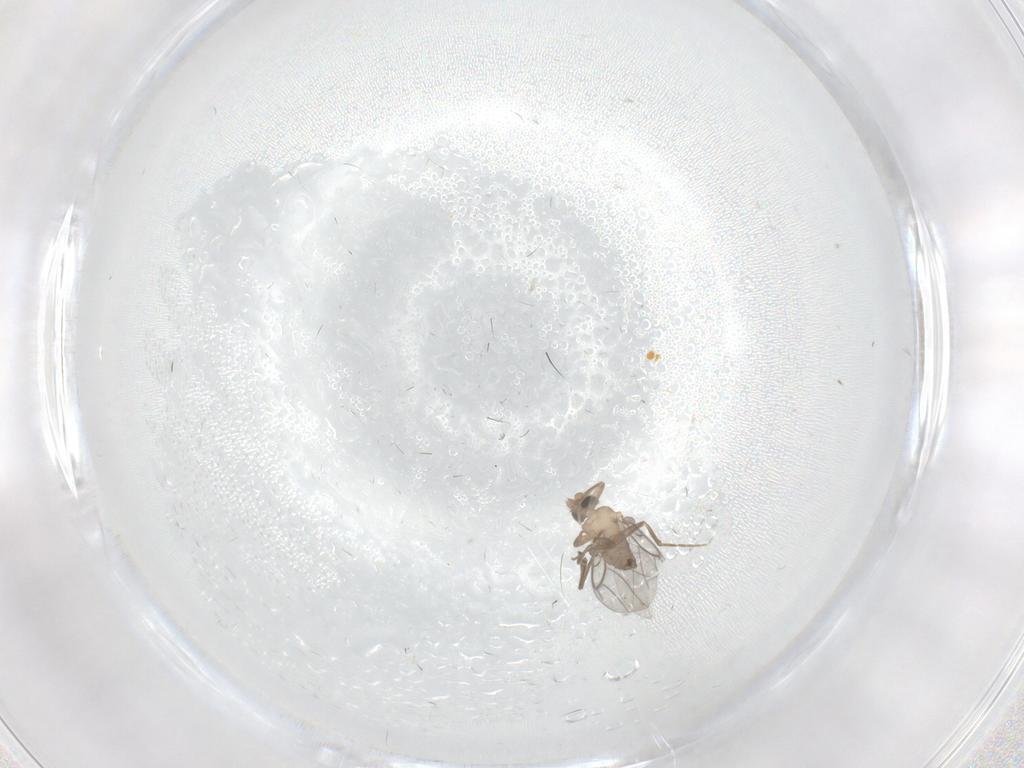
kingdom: Animalia
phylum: Arthropoda
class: Insecta
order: Diptera
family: Cecidomyiidae
